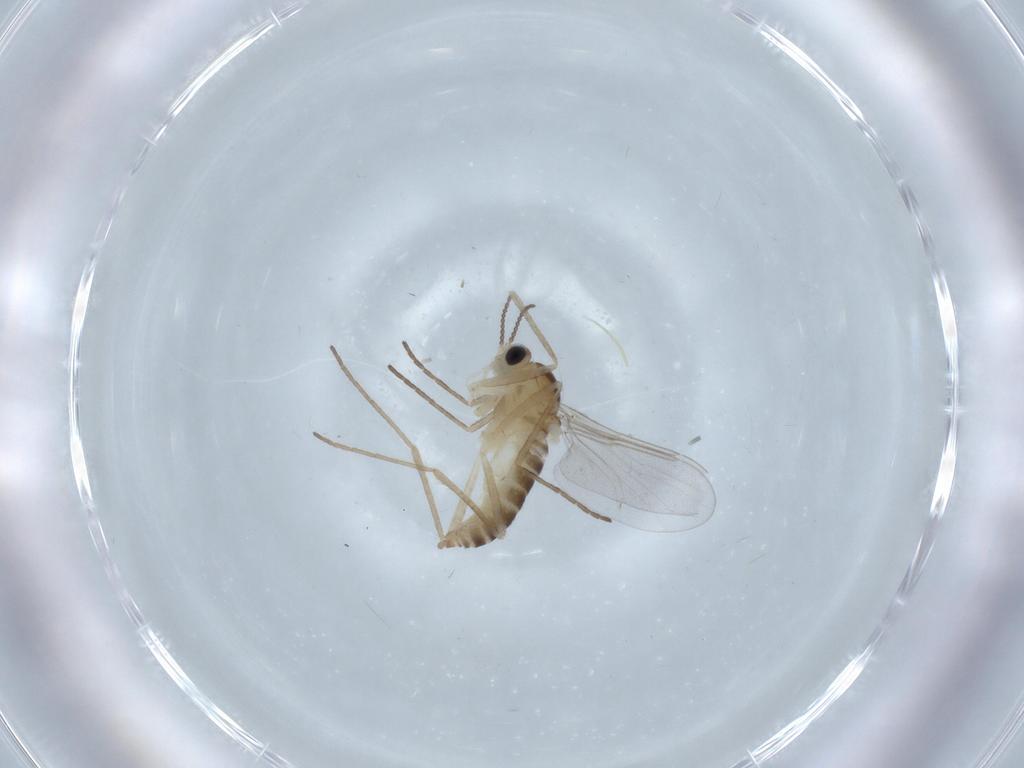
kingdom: Animalia
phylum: Arthropoda
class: Insecta
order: Diptera
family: Cecidomyiidae
